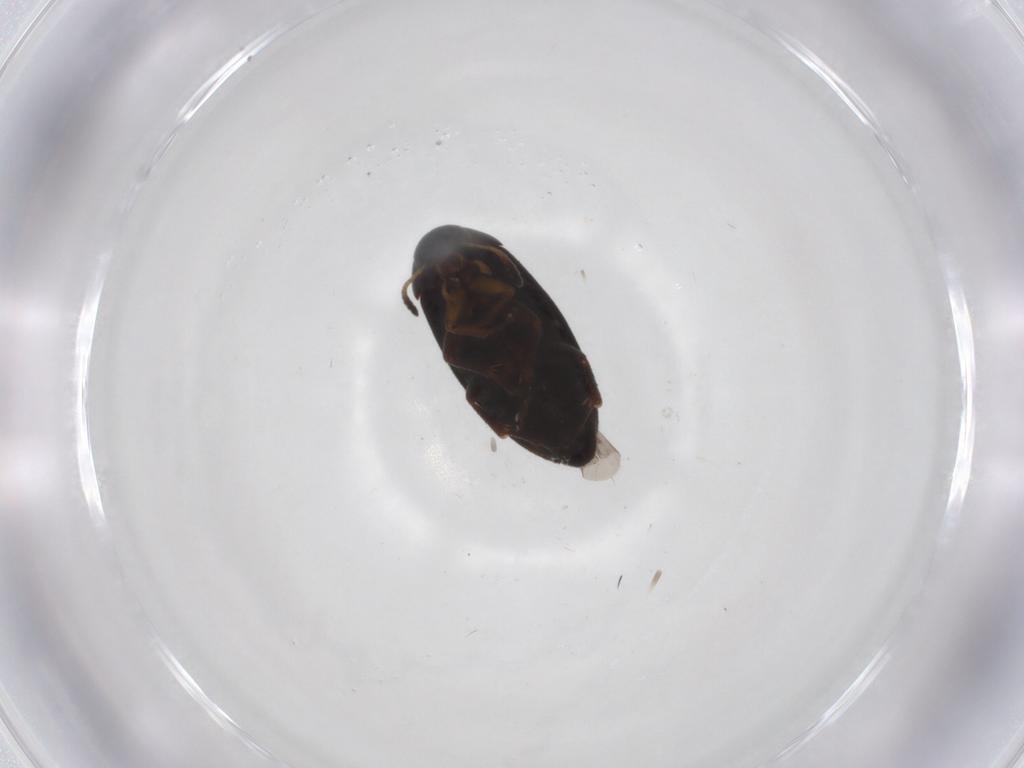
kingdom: Animalia
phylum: Arthropoda
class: Insecta
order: Coleoptera
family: Scraptiidae
